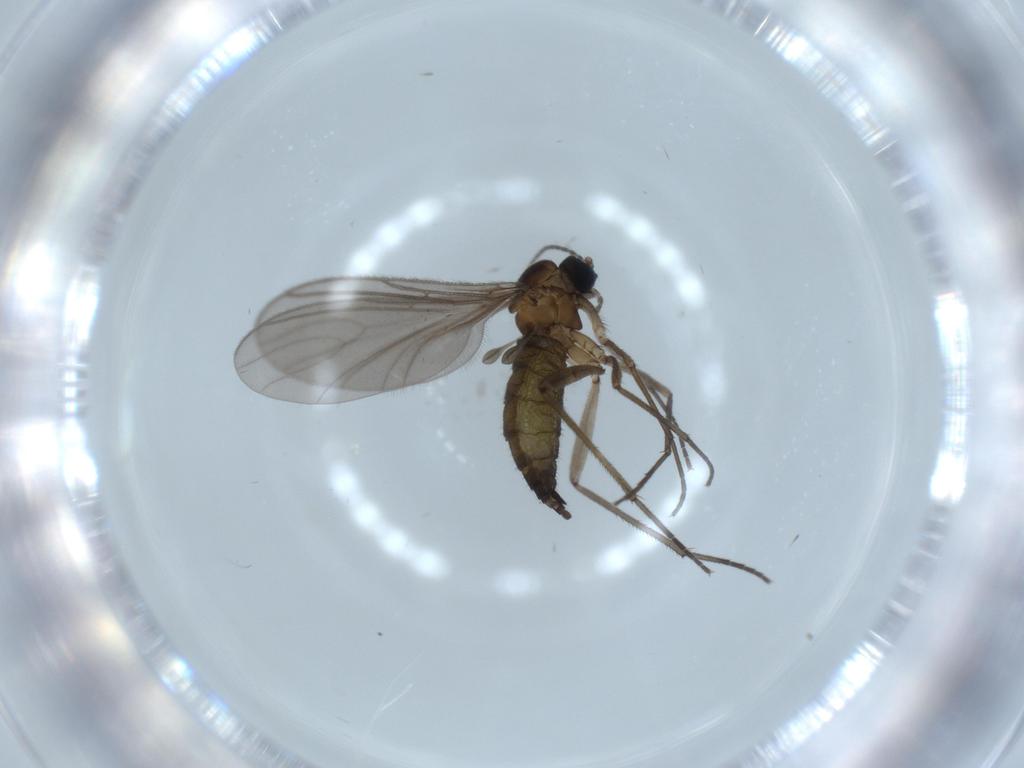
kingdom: Animalia
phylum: Arthropoda
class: Insecta
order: Diptera
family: Sciaridae
